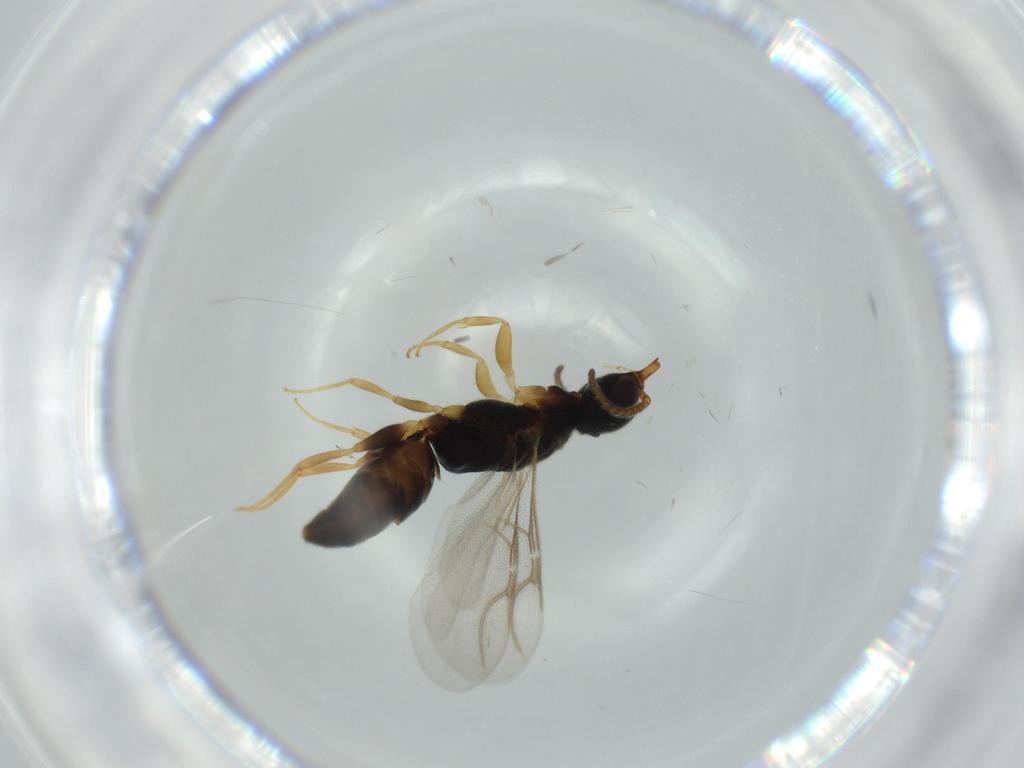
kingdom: Animalia
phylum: Arthropoda
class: Insecta
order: Hymenoptera
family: Bethylidae
